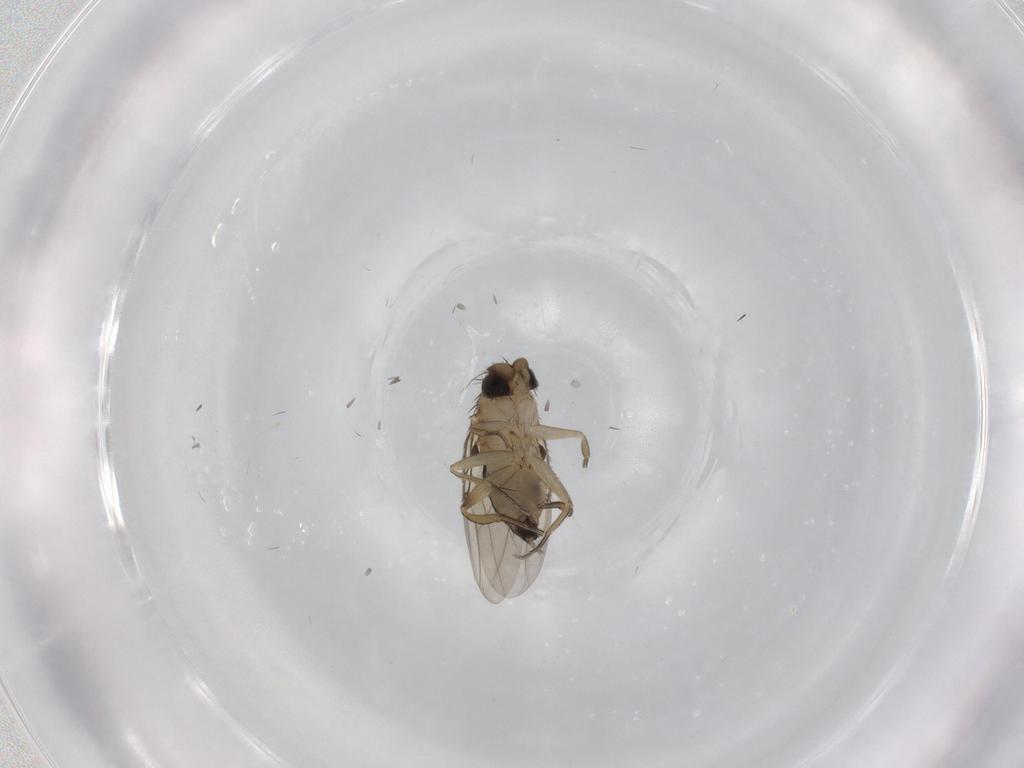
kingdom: Animalia
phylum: Arthropoda
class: Insecta
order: Diptera
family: Phoridae
